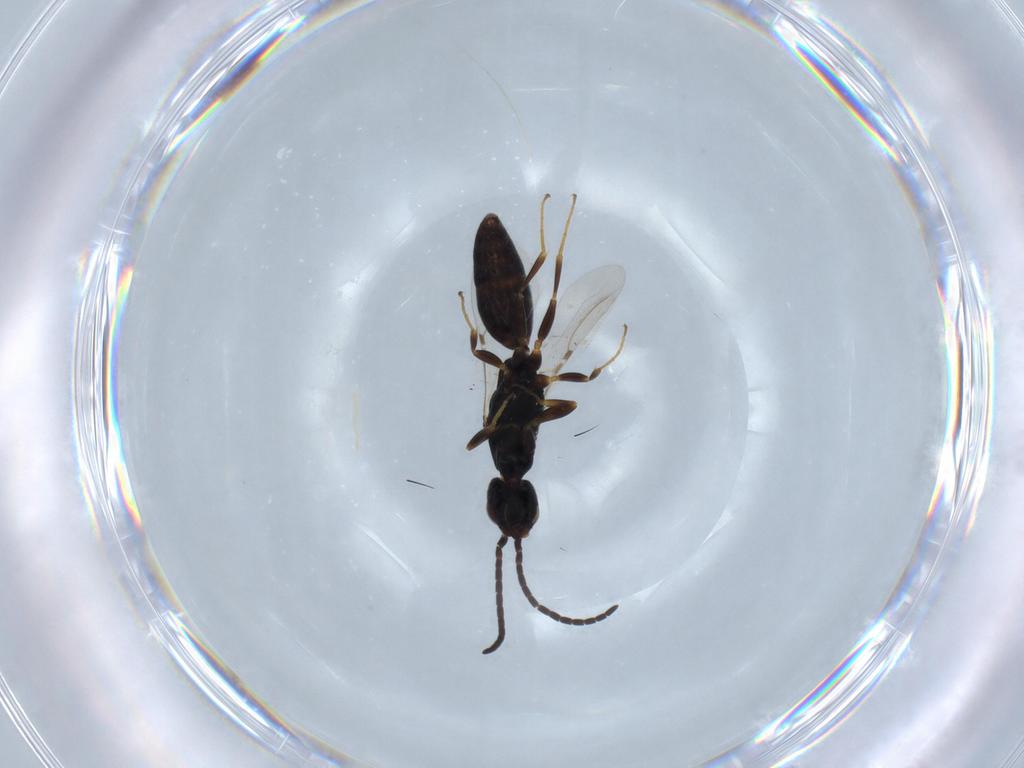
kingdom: Animalia
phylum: Arthropoda
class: Insecta
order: Hymenoptera
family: Bethylidae
